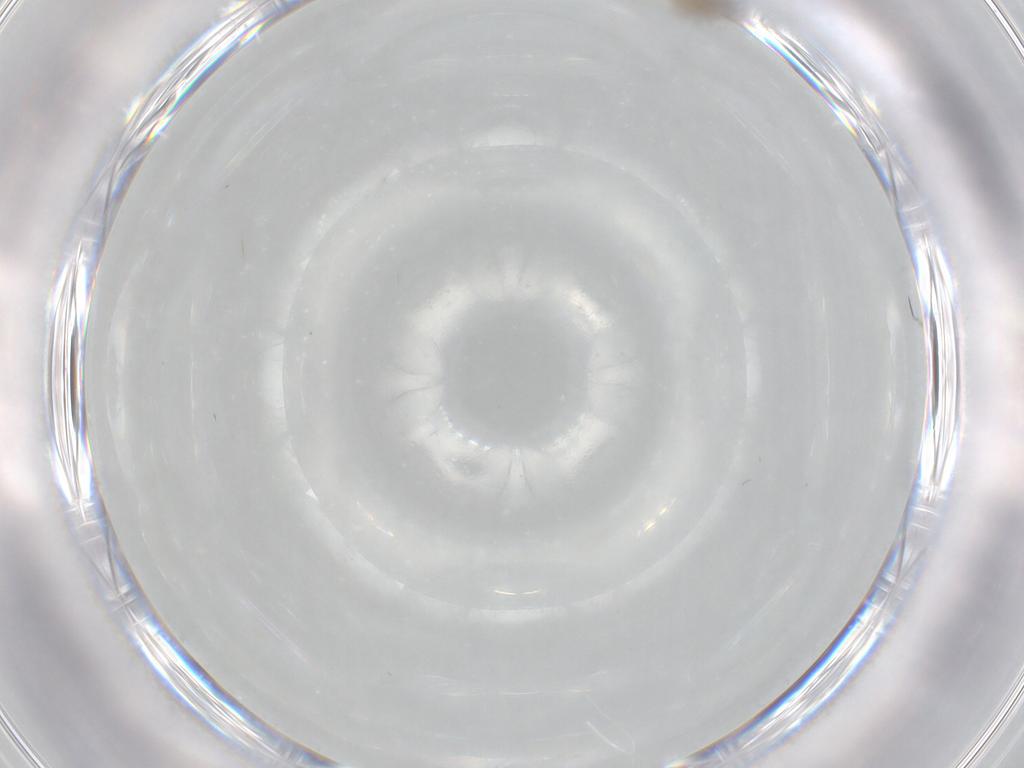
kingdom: Animalia
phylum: Arthropoda
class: Insecta
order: Diptera
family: Chironomidae
